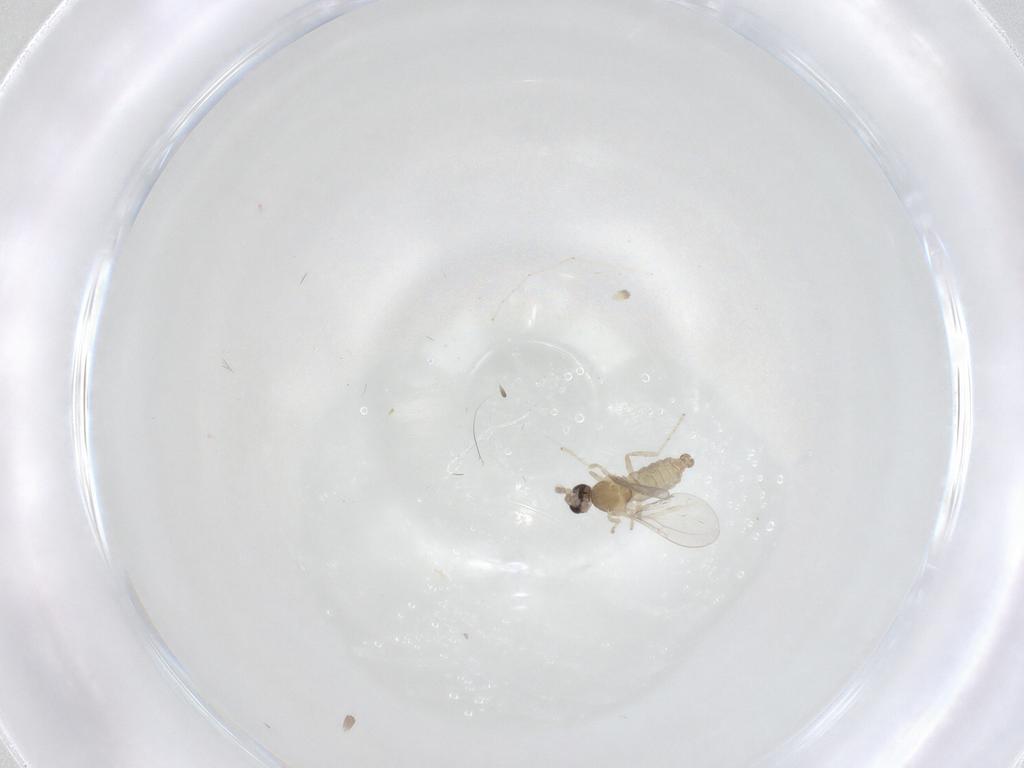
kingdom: Animalia
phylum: Arthropoda
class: Insecta
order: Diptera
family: Cecidomyiidae
